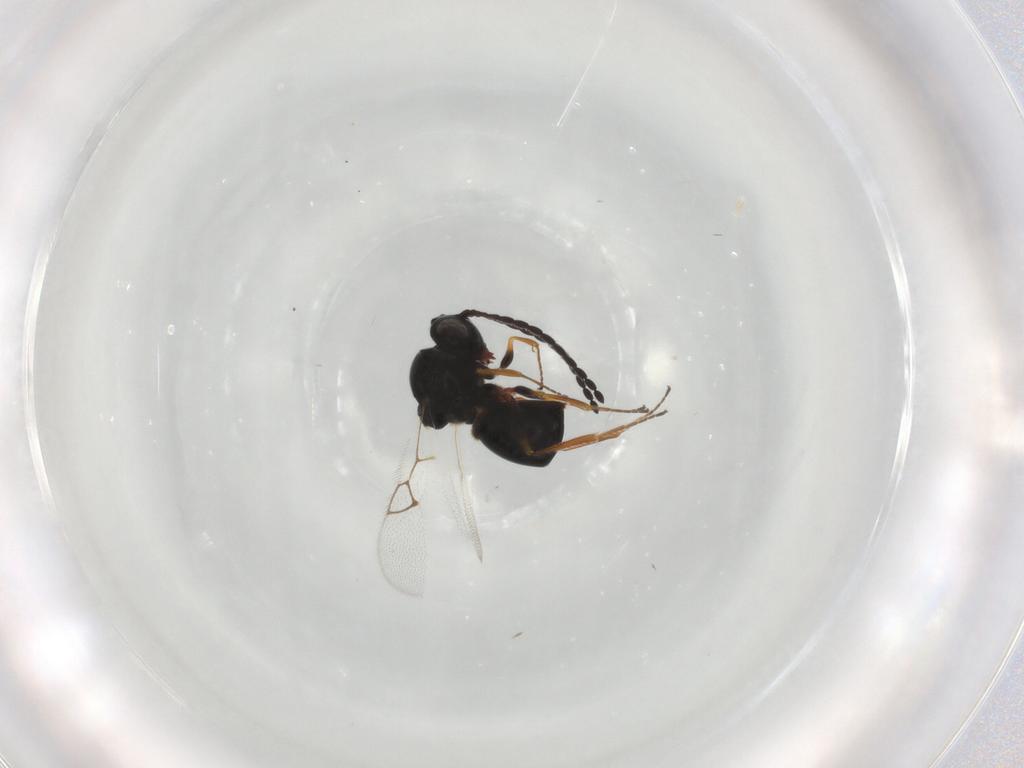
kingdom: Animalia
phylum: Arthropoda
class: Insecta
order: Hymenoptera
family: Figitidae
